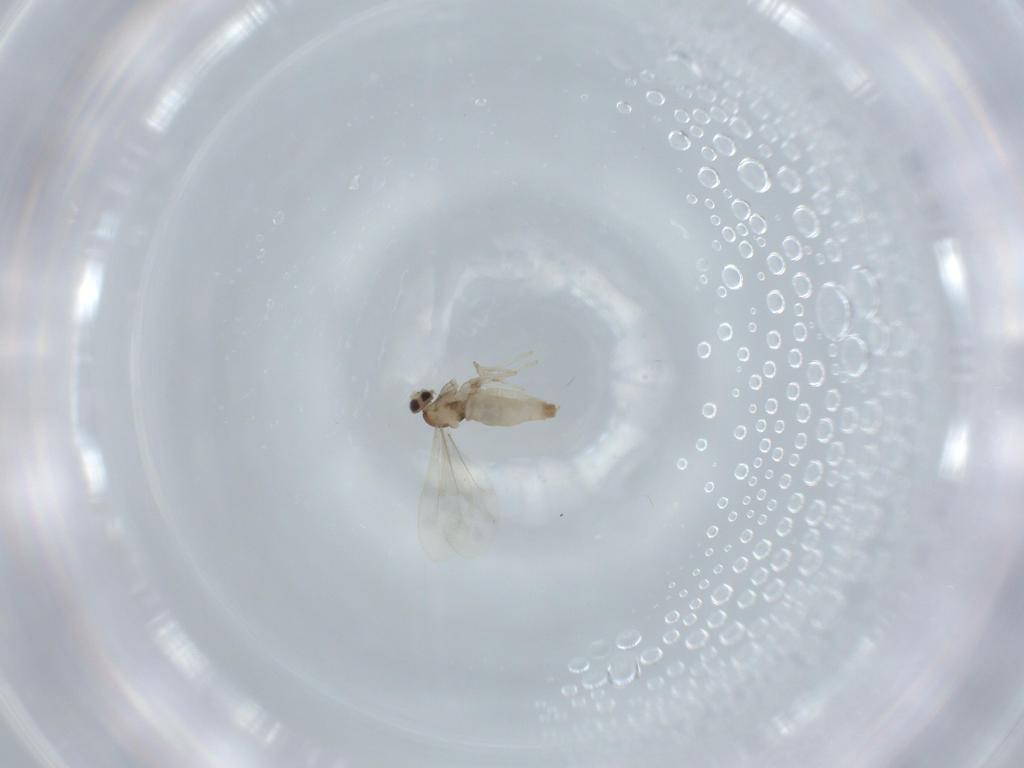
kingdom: Animalia
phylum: Arthropoda
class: Insecta
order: Diptera
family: Cecidomyiidae
